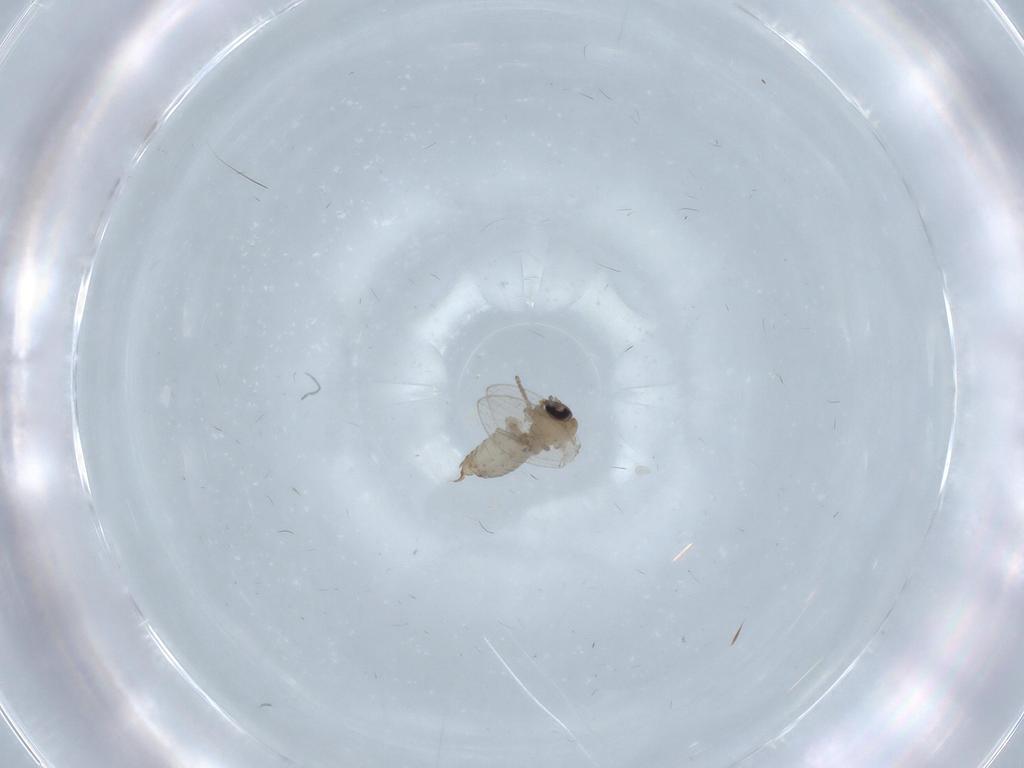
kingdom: Animalia
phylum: Arthropoda
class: Insecta
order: Diptera
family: Psychodidae
